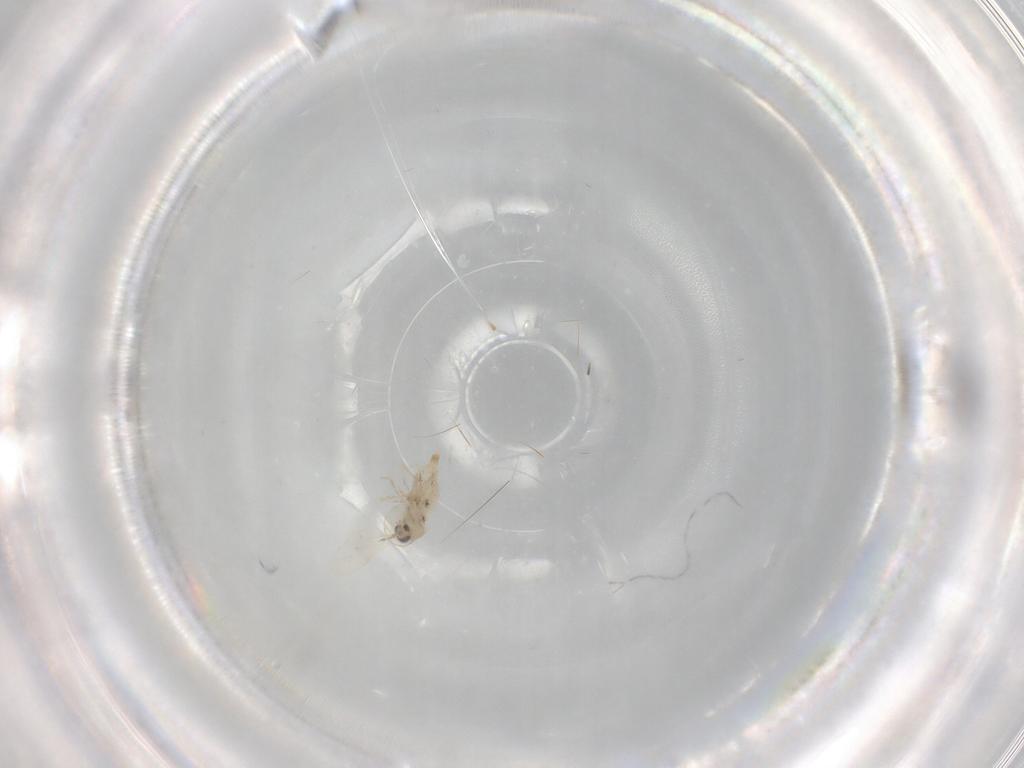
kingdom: Animalia
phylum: Arthropoda
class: Insecta
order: Diptera
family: Cecidomyiidae
